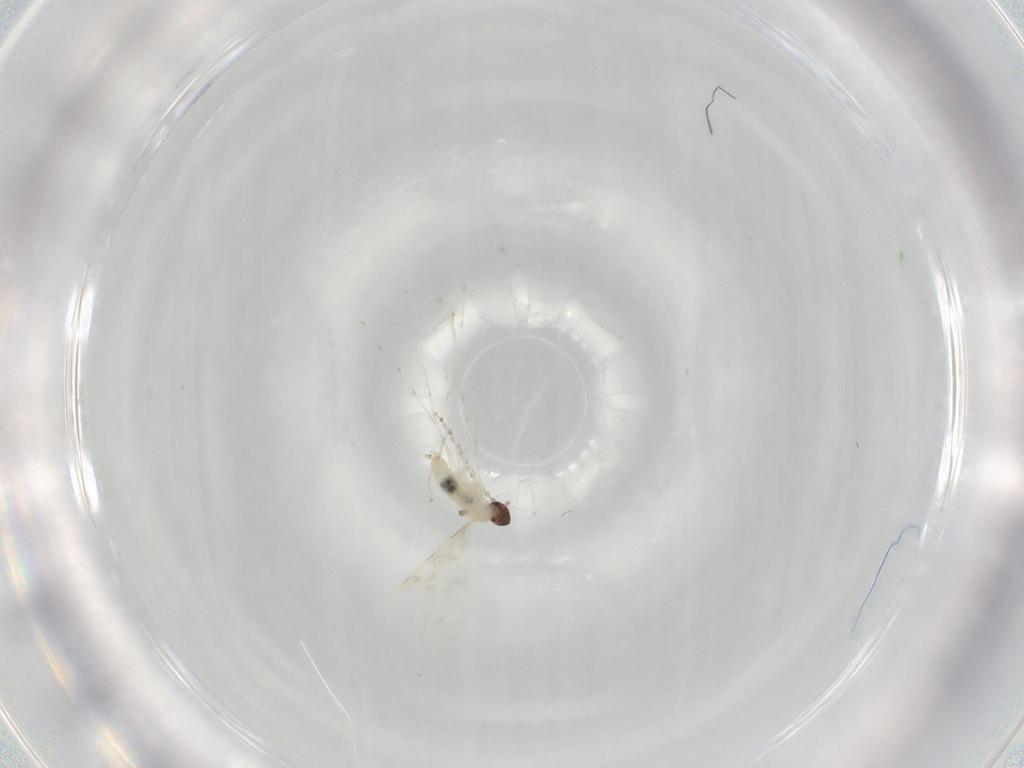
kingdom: Animalia
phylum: Arthropoda
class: Insecta
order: Diptera
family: Cecidomyiidae
